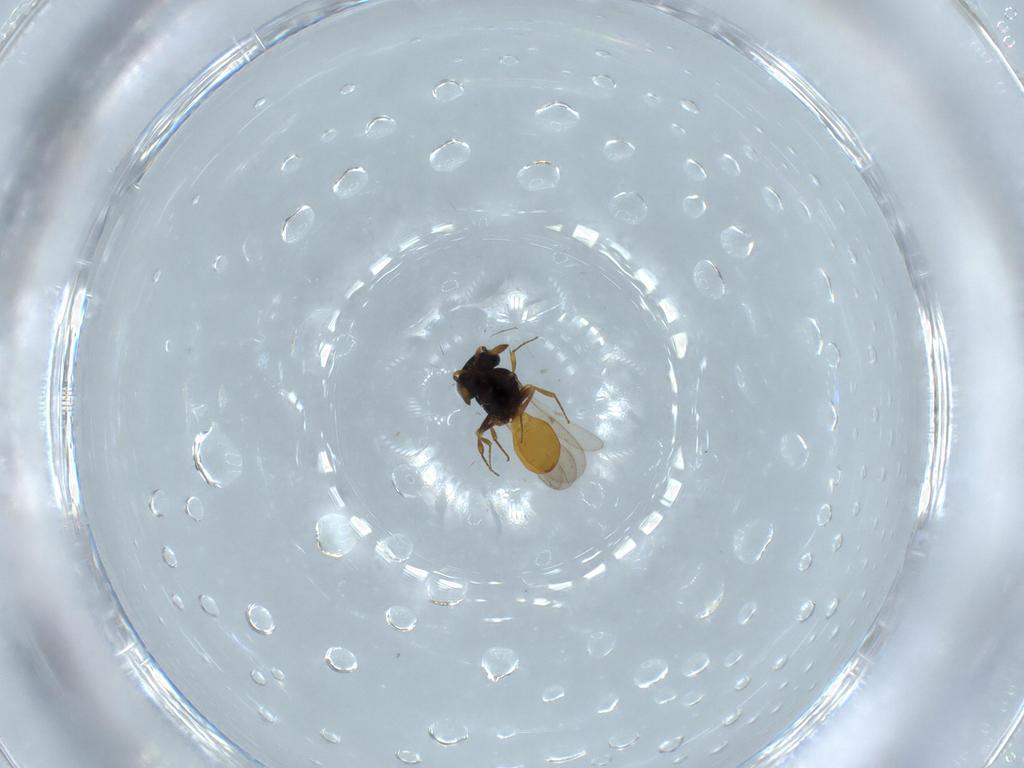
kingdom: Animalia
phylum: Arthropoda
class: Insecta
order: Hymenoptera
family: Scelionidae
